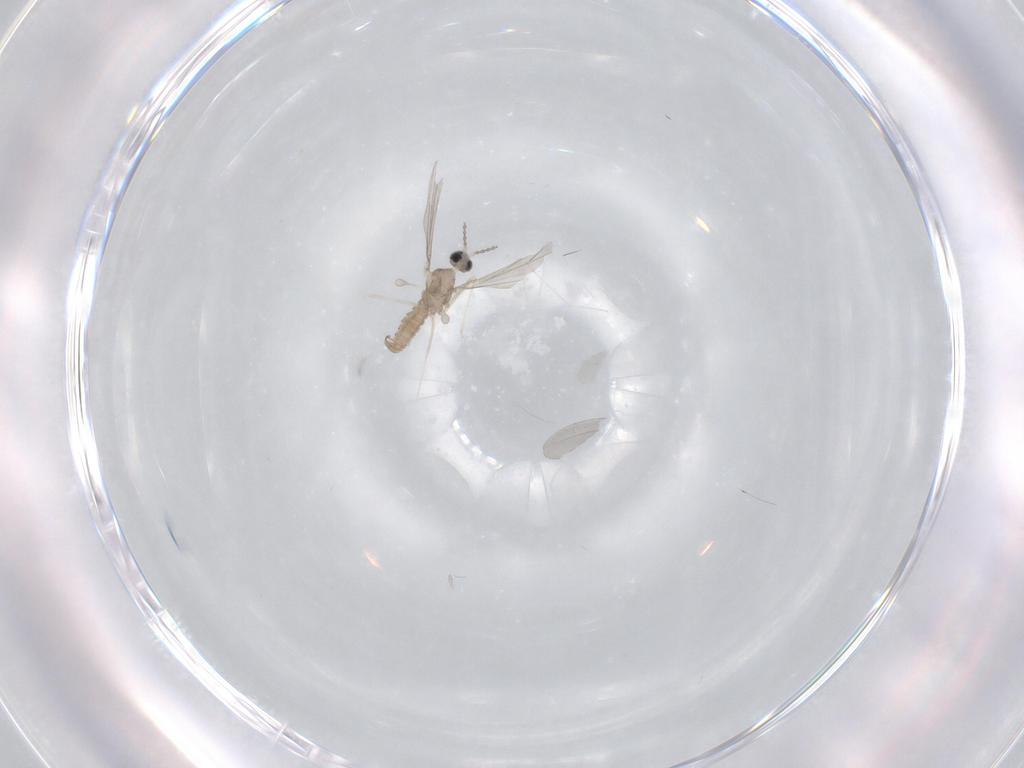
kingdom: Animalia
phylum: Arthropoda
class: Insecta
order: Diptera
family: Cecidomyiidae
